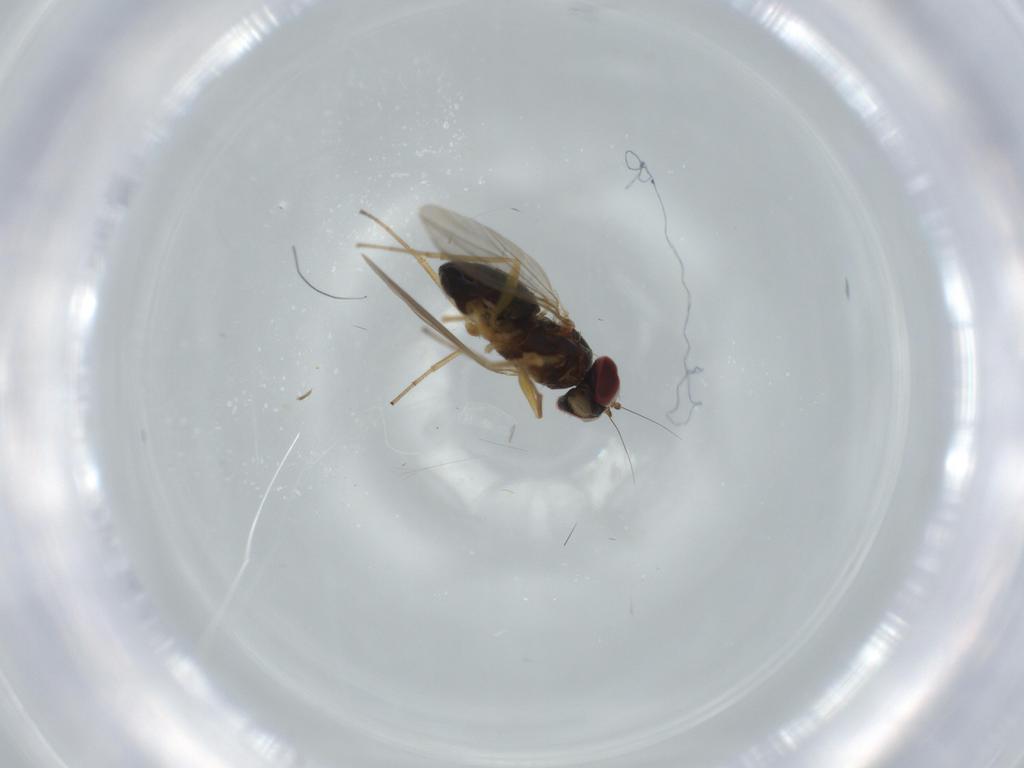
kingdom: Animalia
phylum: Arthropoda
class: Insecta
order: Diptera
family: Dolichopodidae
